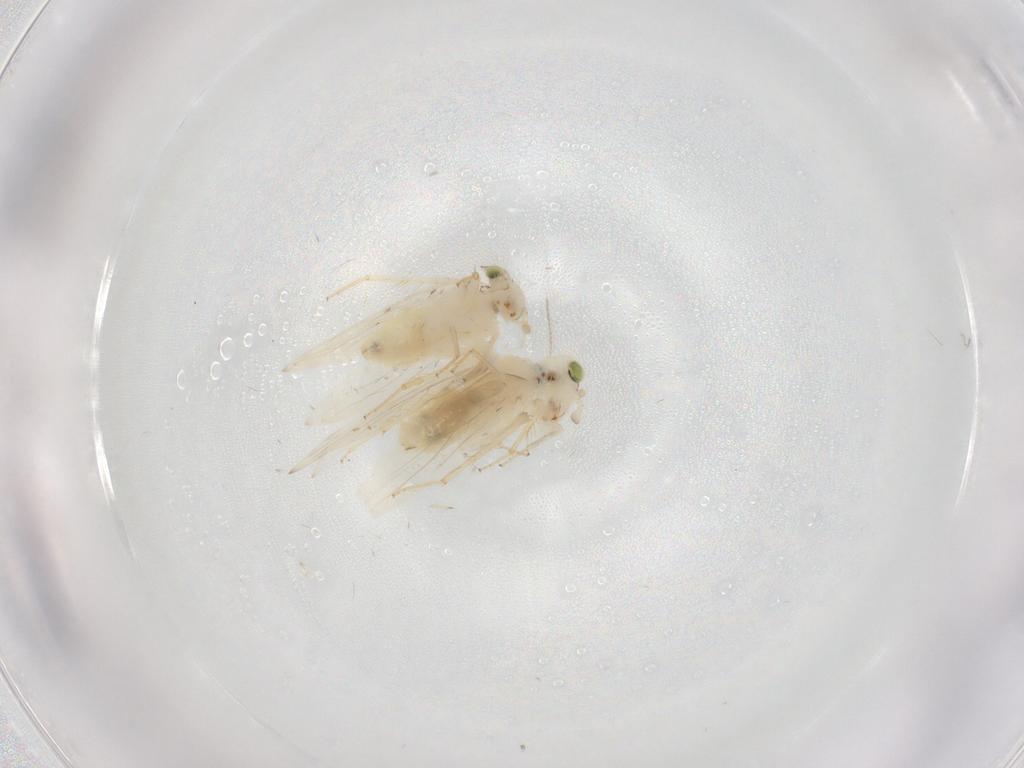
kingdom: Animalia
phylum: Arthropoda
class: Insecta
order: Psocodea
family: Lepidopsocidae
